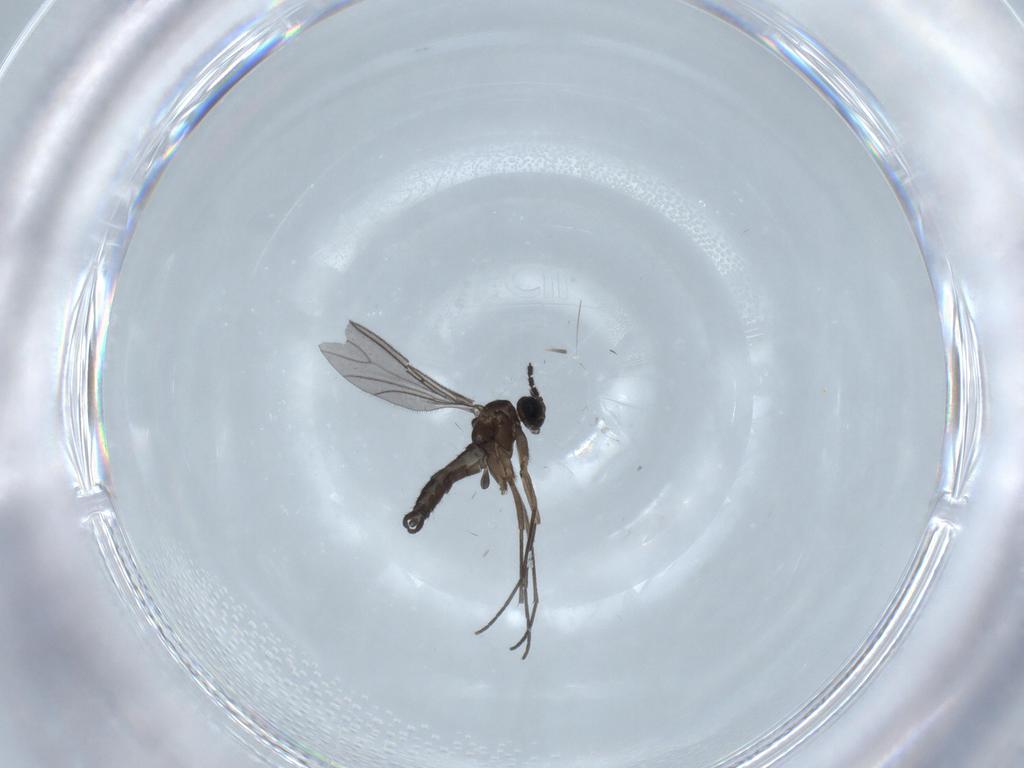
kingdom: Animalia
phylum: Arthropoda
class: Insecta
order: Diptera
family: Sciaridae
